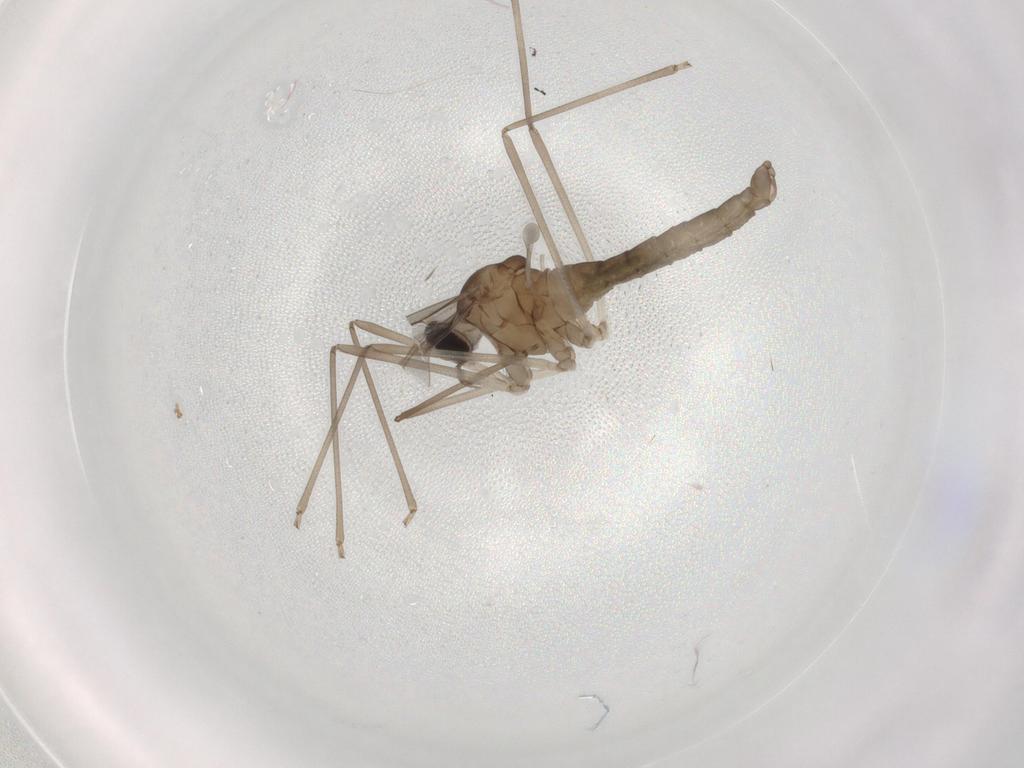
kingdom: Animalia
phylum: Arthropoda
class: Insecta
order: Diptera
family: Cecidomyiidae
